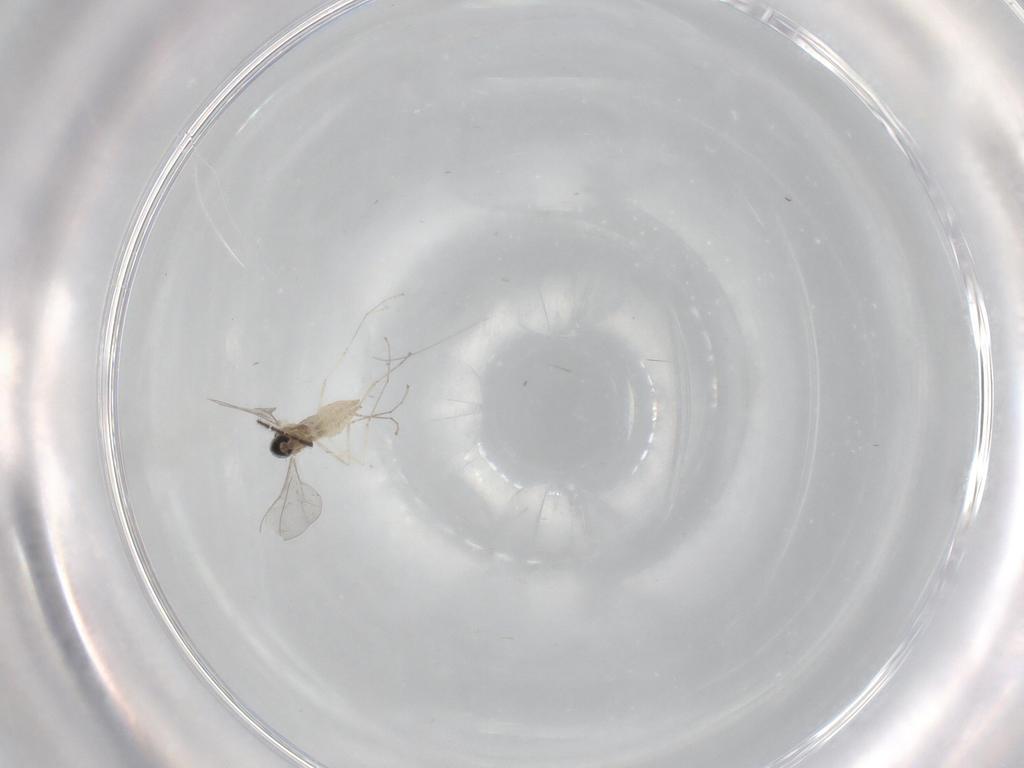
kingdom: Animalia
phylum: Arthropoda
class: Insecta
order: Diptera
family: Cecidomyiidae
